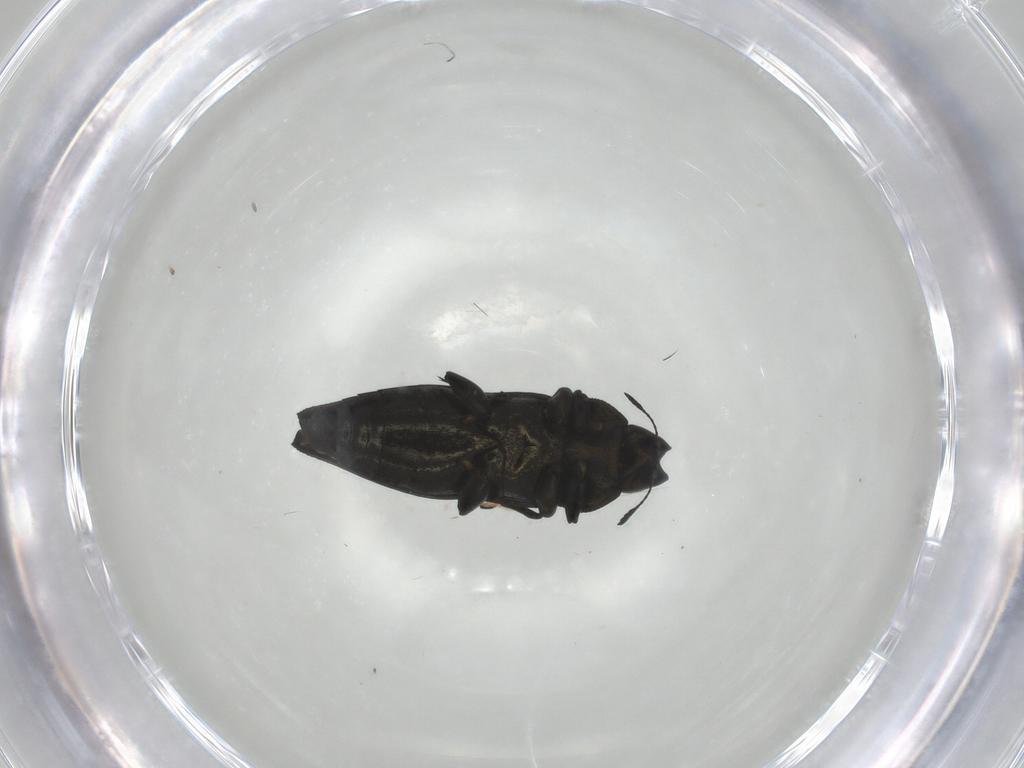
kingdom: Animalia
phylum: Arthropoda
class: Insecta
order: Coleoptera
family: Buprestidae
